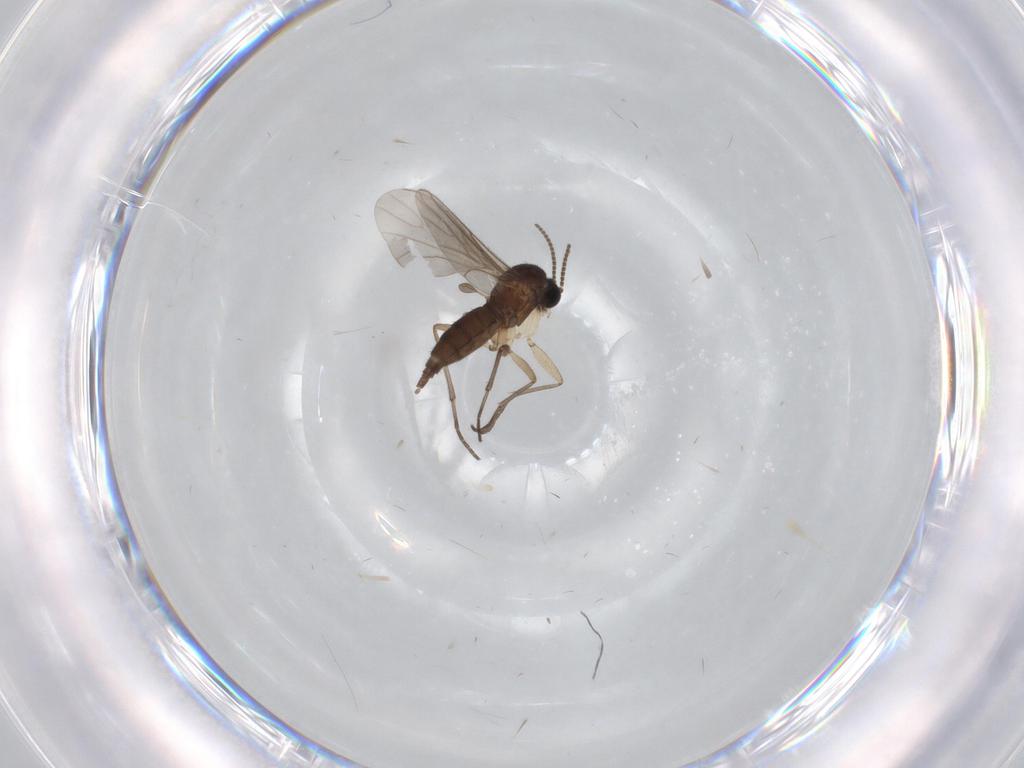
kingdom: Animalia
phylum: Arthropoda
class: Insecta
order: Diptera
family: Sciaridae
